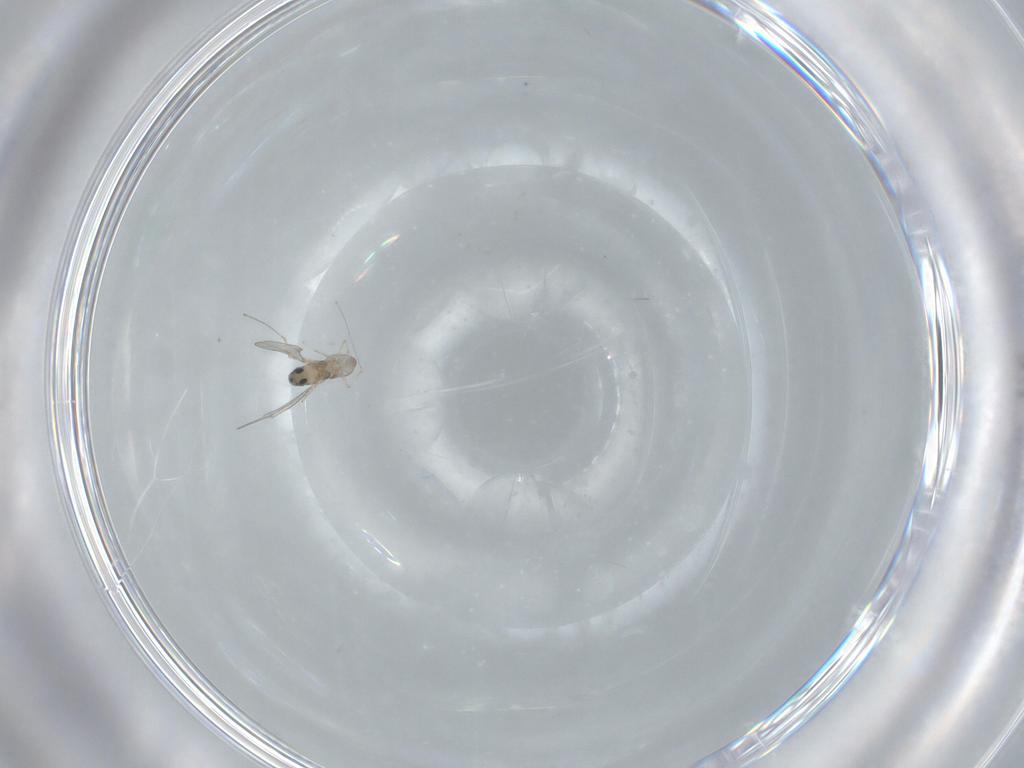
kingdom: Animalia
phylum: Arthropoda
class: Insecta
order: Diptera
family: Cecidomyiidae
